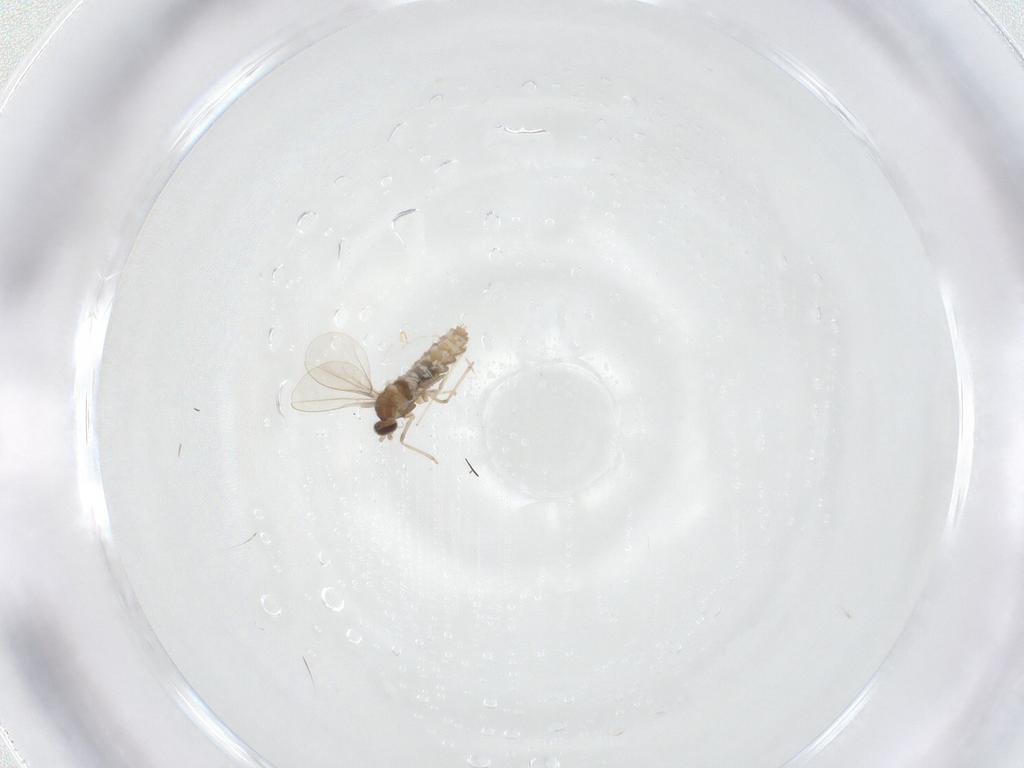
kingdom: Animalia
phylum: Arthropoda
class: Insecta
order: Diptera
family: Cecidomyiidae
